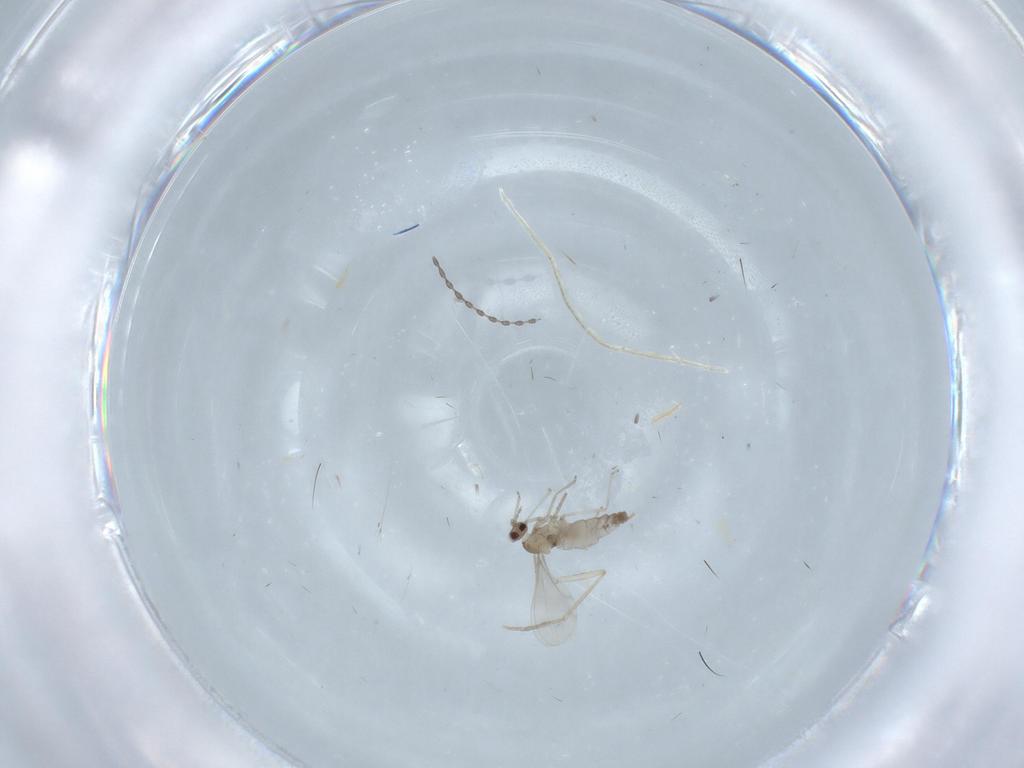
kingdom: Animalia
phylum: Arthropoda
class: Insecta
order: Diptera
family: Cecidomyiidae
